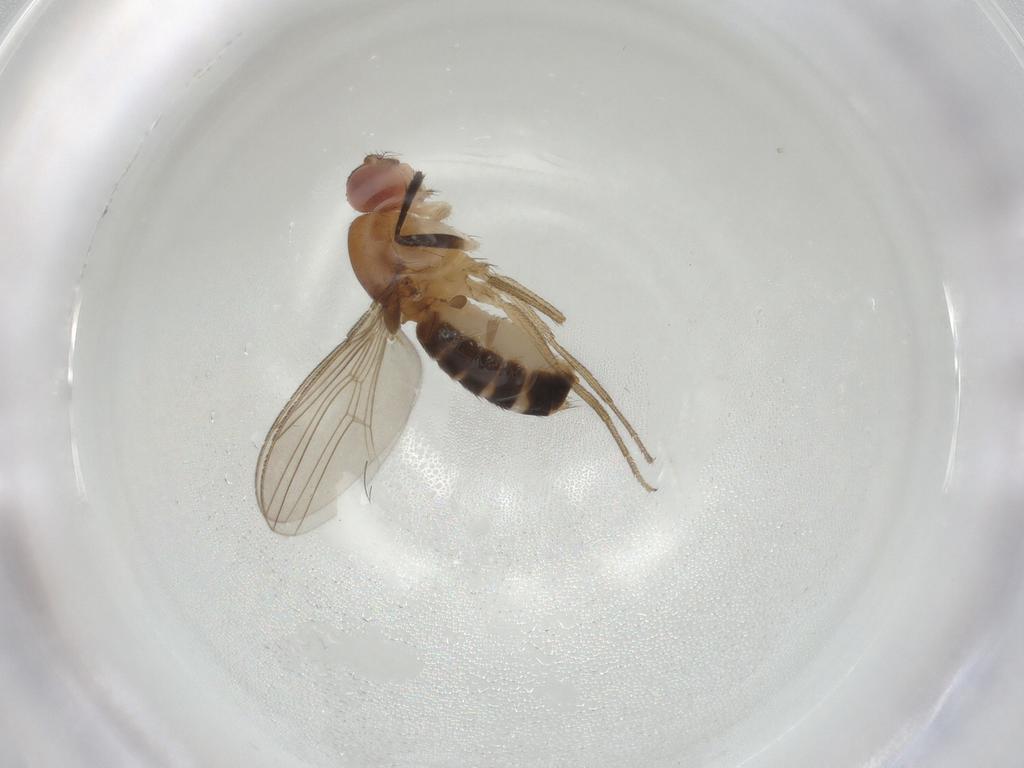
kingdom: Animalia
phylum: Arthropoda
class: Insecta
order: Diptera
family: Drosophilidae
